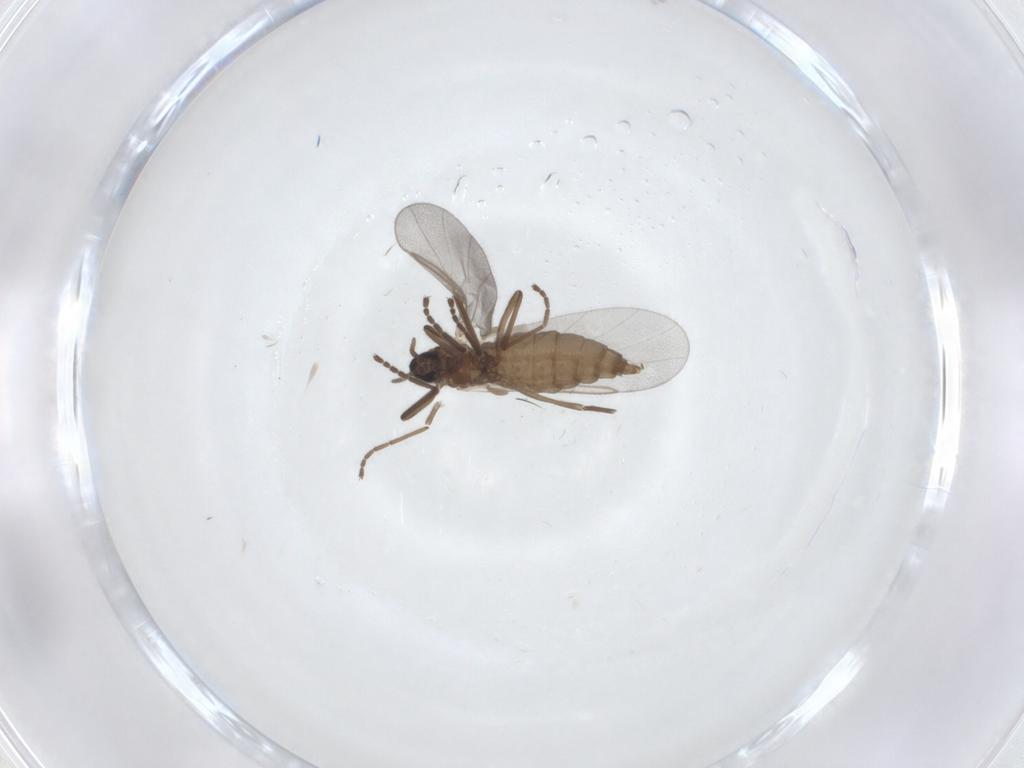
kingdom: Animalia
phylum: Arthropoda
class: Insecta
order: Diptera
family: Cecidomyiidae
